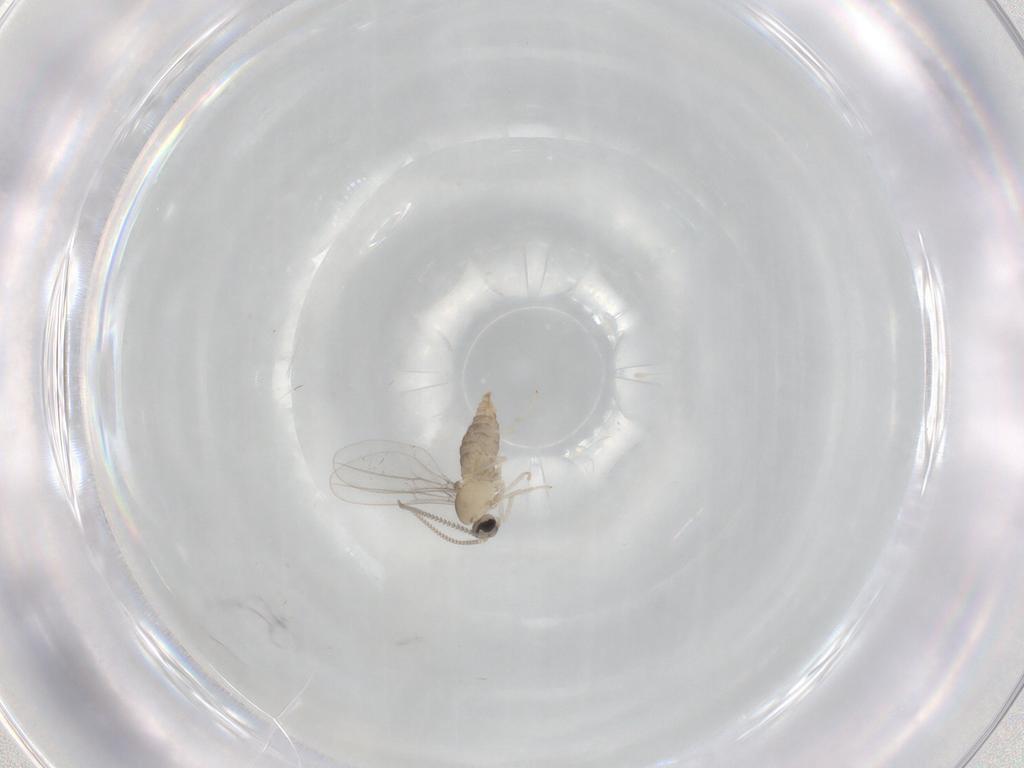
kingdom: Animalia
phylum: Arthropoda
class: Insecta
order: Diptera
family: Cecidomyiidae
